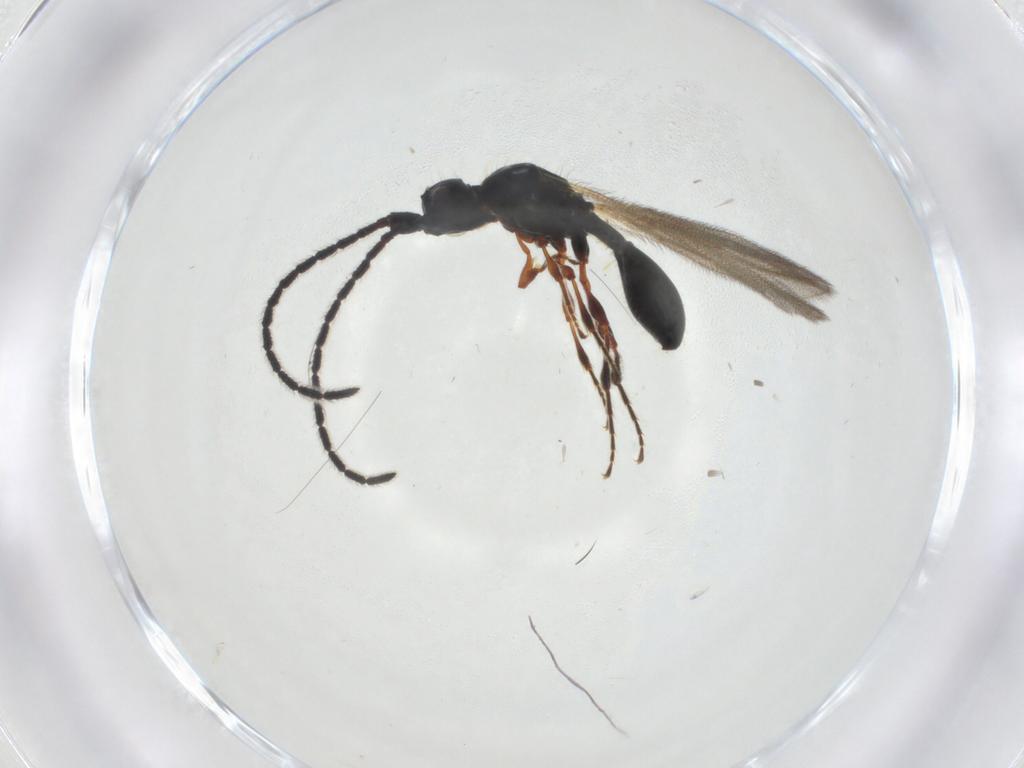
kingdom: Animalia
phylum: Arthropoda
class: Insecta
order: Hymenoptera
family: Diapriidae
